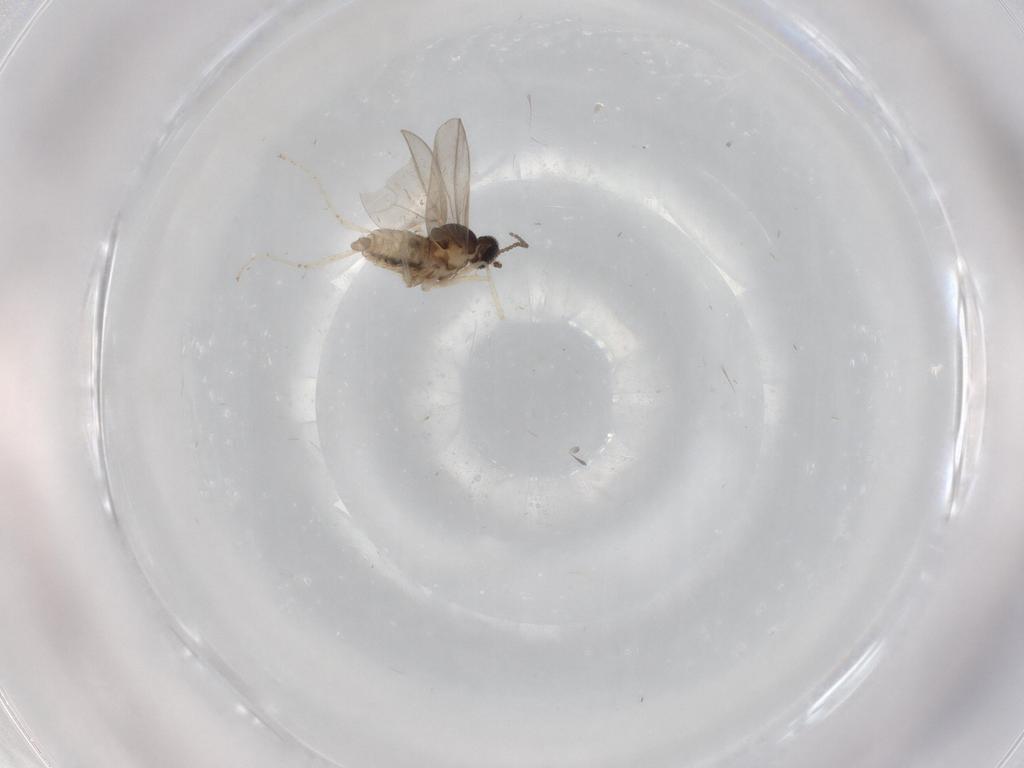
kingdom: Animalia
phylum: Arthropoda
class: Insecta
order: Diptera
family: Cecidomyiidae
